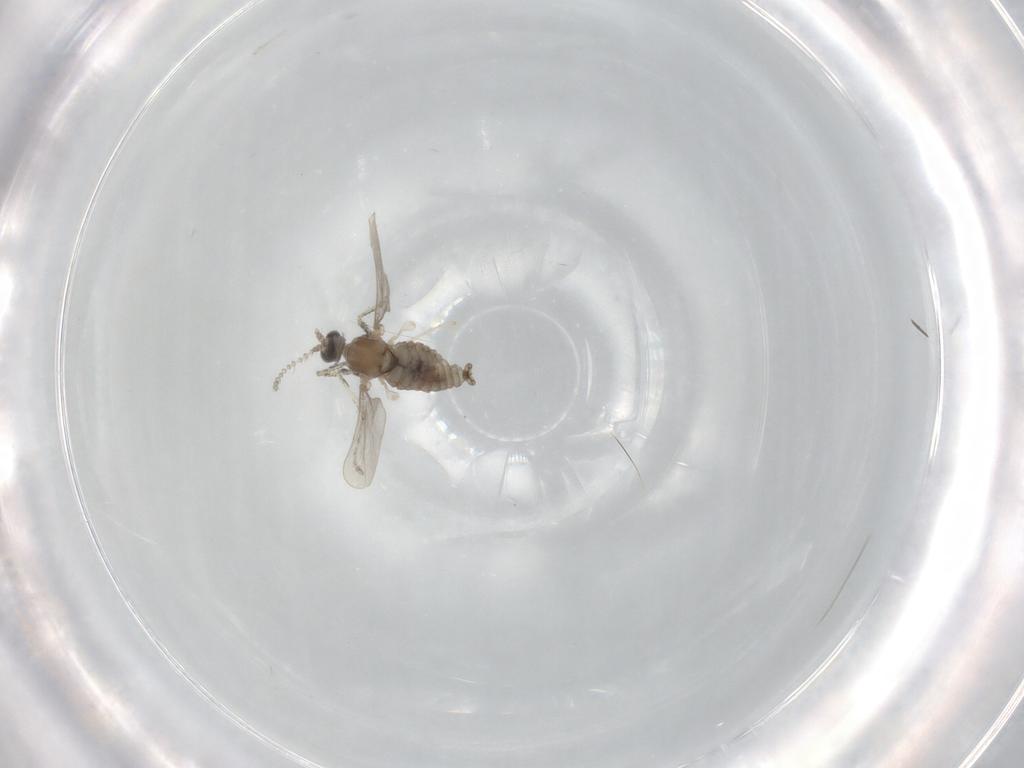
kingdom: Animalia
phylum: Arthropoda
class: Insecta
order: Diptera
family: Cecidomyiidae
